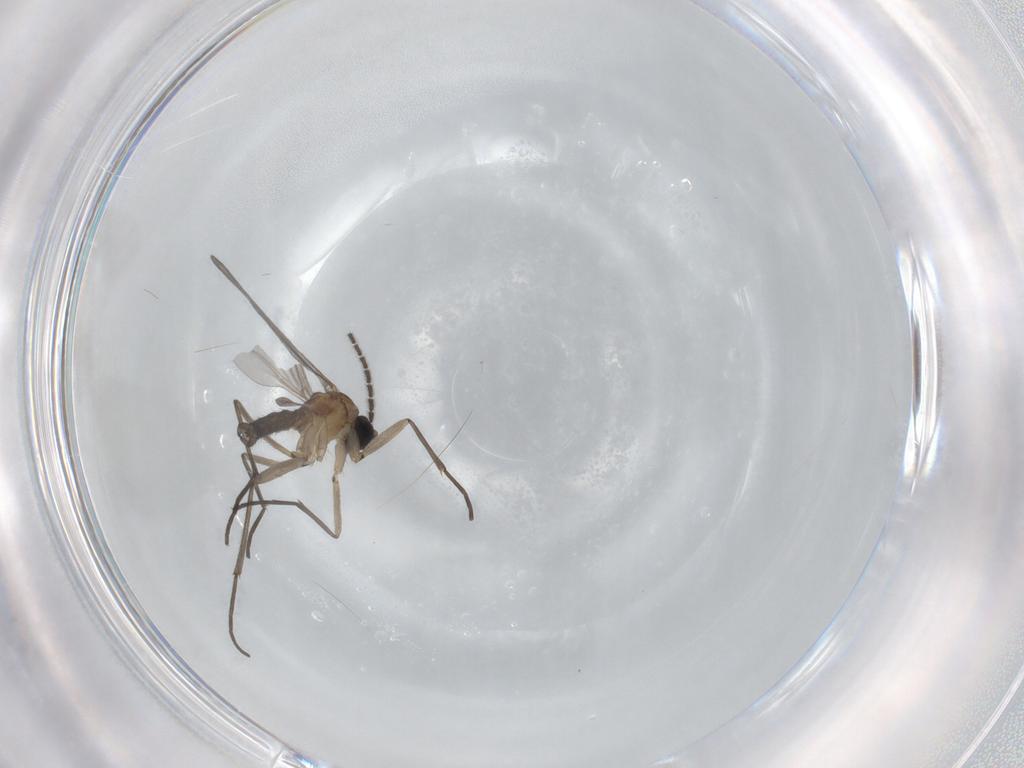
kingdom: Animalia
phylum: Arthropoda
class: Insecta
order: Diptera
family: Sciaridae
